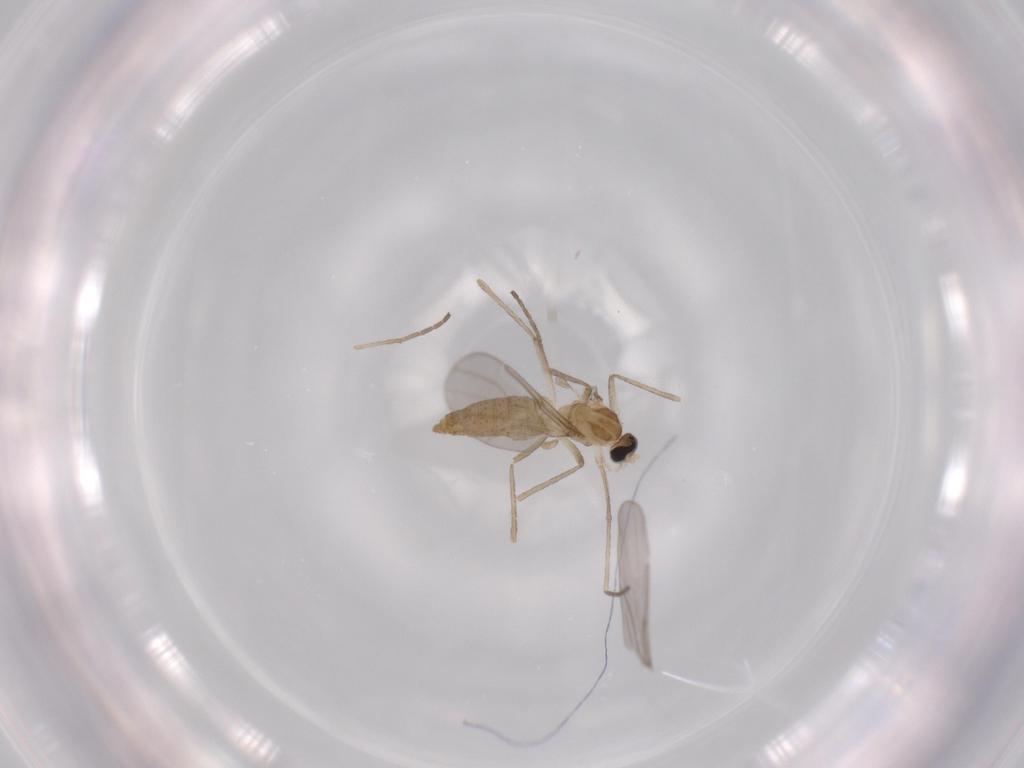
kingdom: Animalia
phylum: Arthropoda
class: Insecta
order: Diptera
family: Cecidomyiidae
